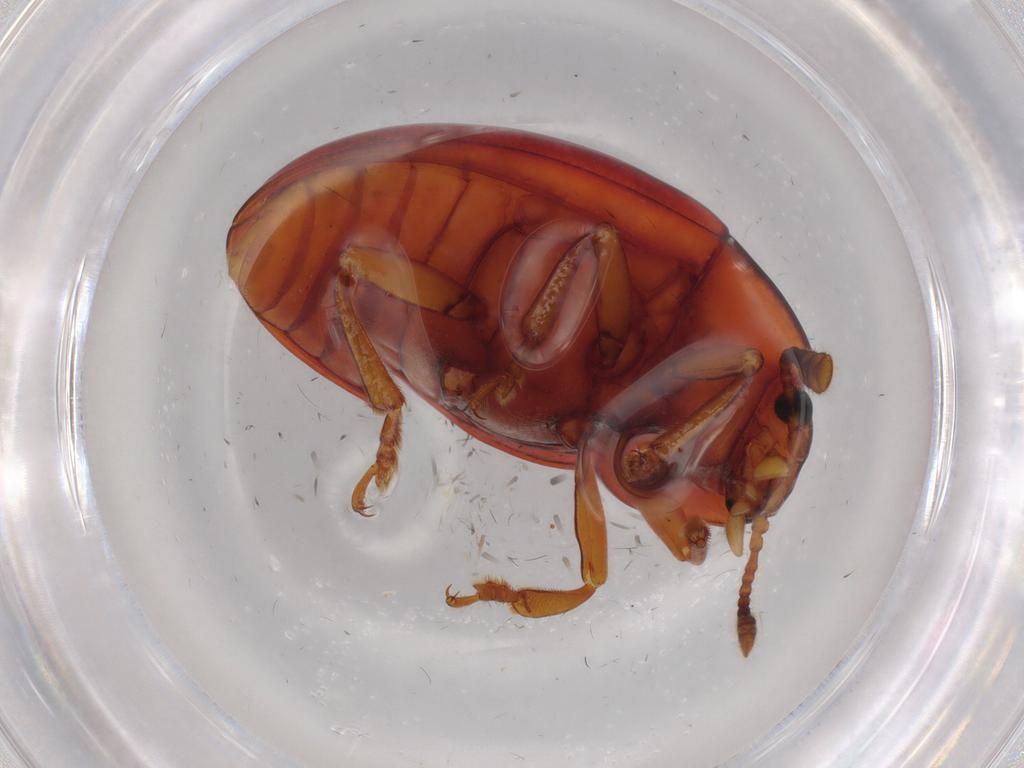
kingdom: Animalia
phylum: Arthropoda
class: Insecta
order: Coleoptera
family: Erotylidae
